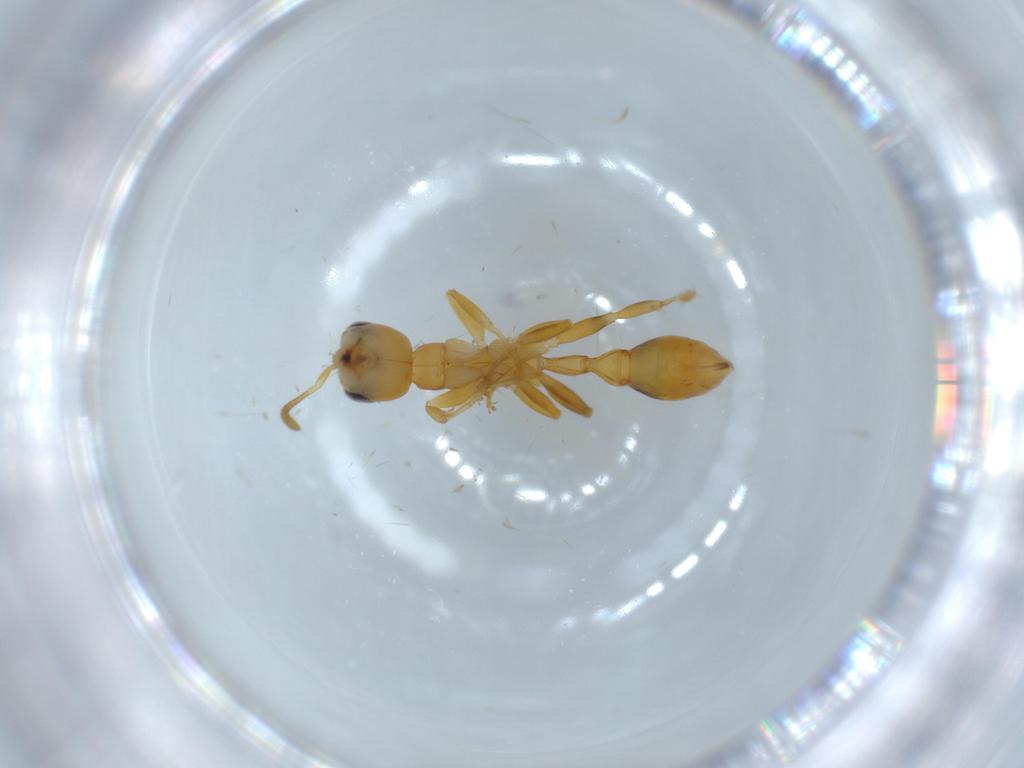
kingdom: Animalia
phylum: Arthropoda
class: Insecta
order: Hymenoptera
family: Formicidae
